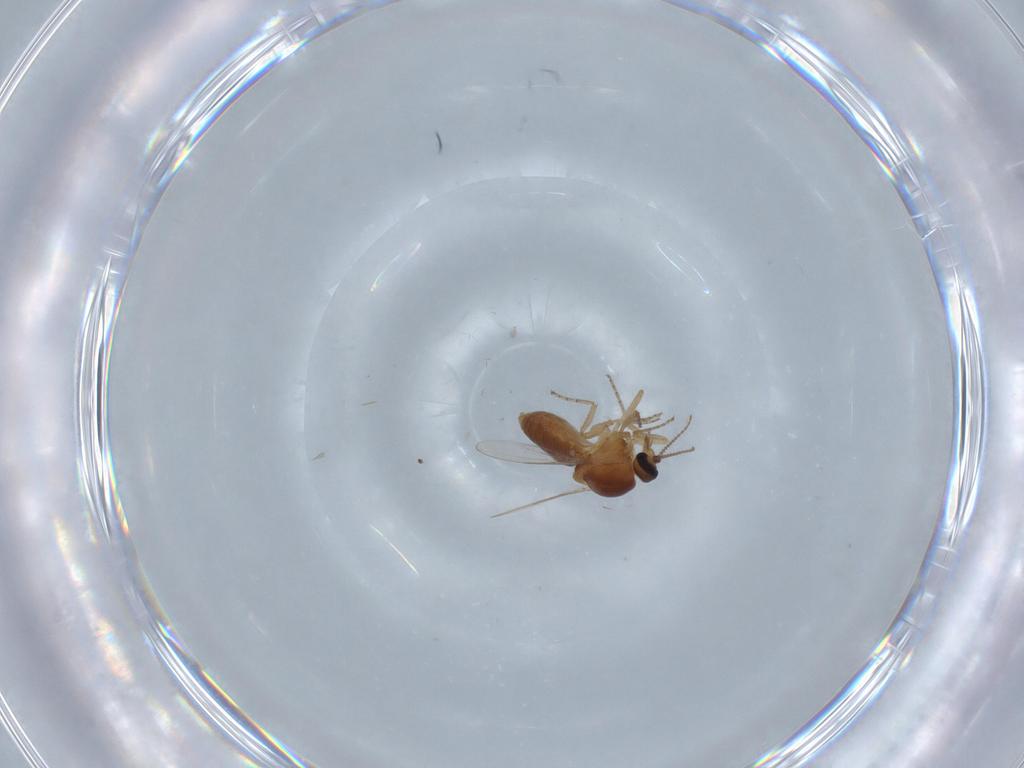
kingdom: Animalia
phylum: Arthropoda
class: Insecta
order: Diptera
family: Ceratopogonidae
